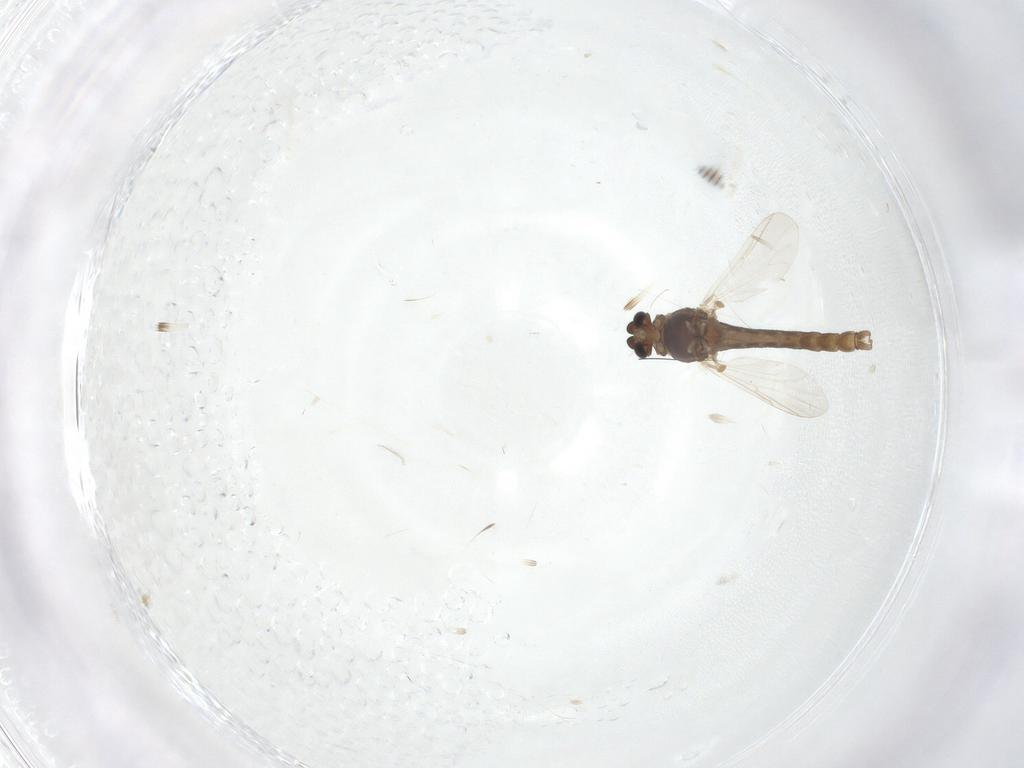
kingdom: Animalia
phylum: Arthropoda
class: Insecta
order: Diptera
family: Chironomidae
